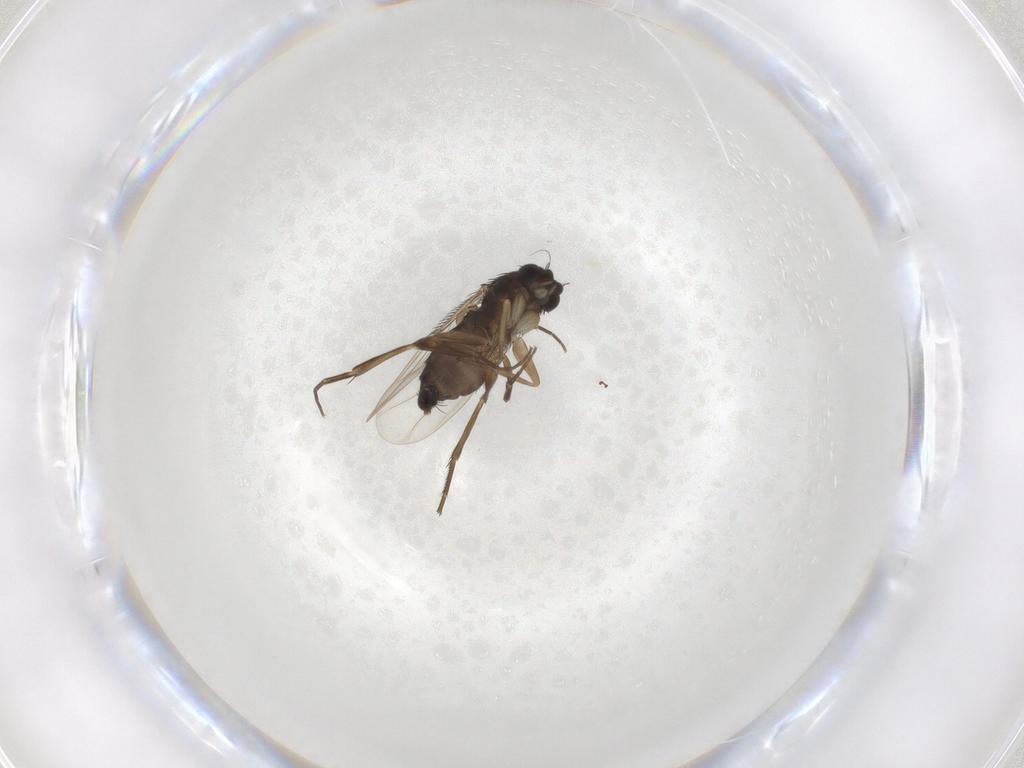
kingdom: Animalia
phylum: Arthropoda
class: Insecta
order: Diptera
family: Phoridae
